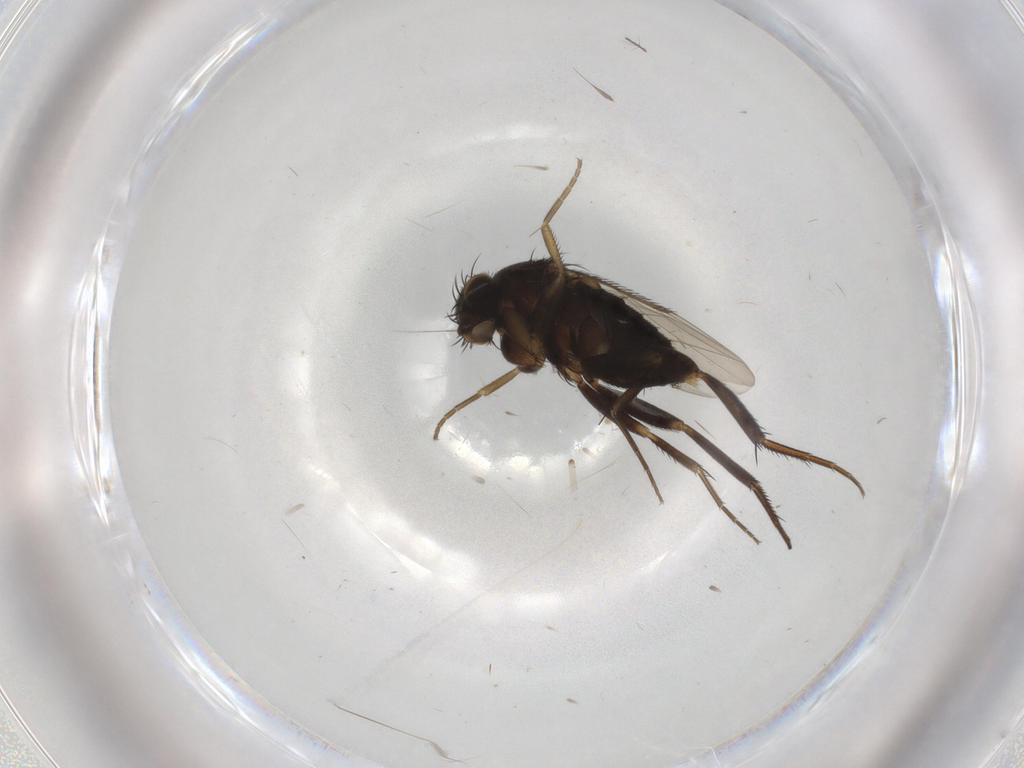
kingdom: Animalia
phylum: Arthropoda
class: Insecta
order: Diptera
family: Phoridae
